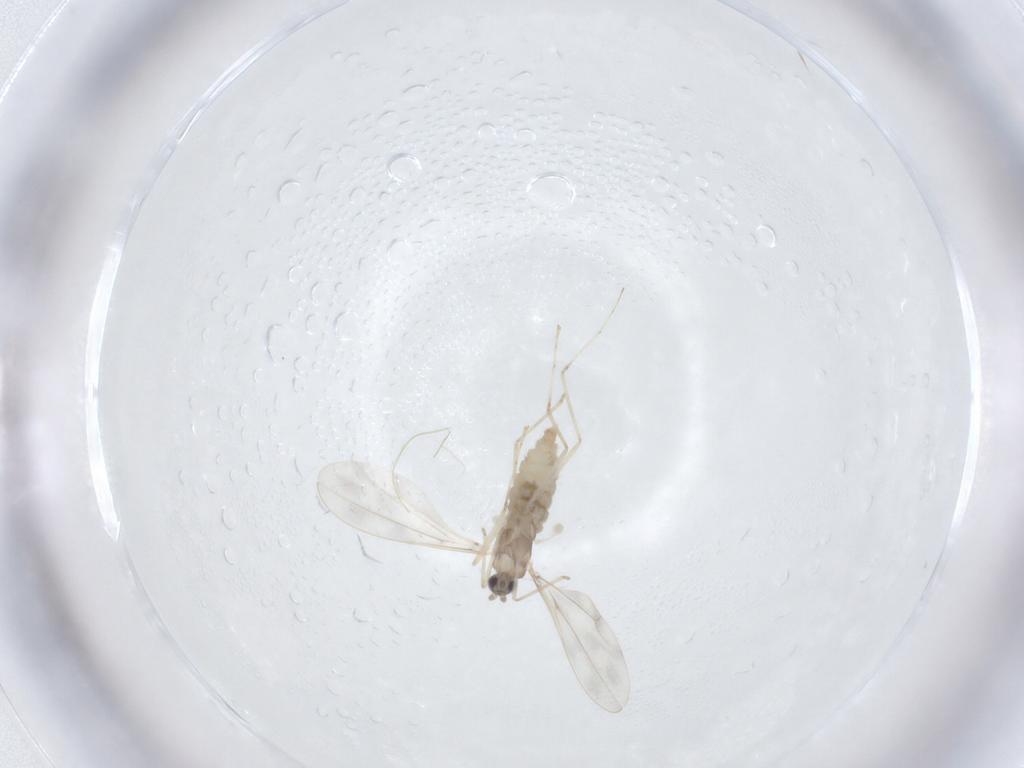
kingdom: Animalia
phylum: Arthropoda
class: Insecta
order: Diptera
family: Cecidomyiidae
